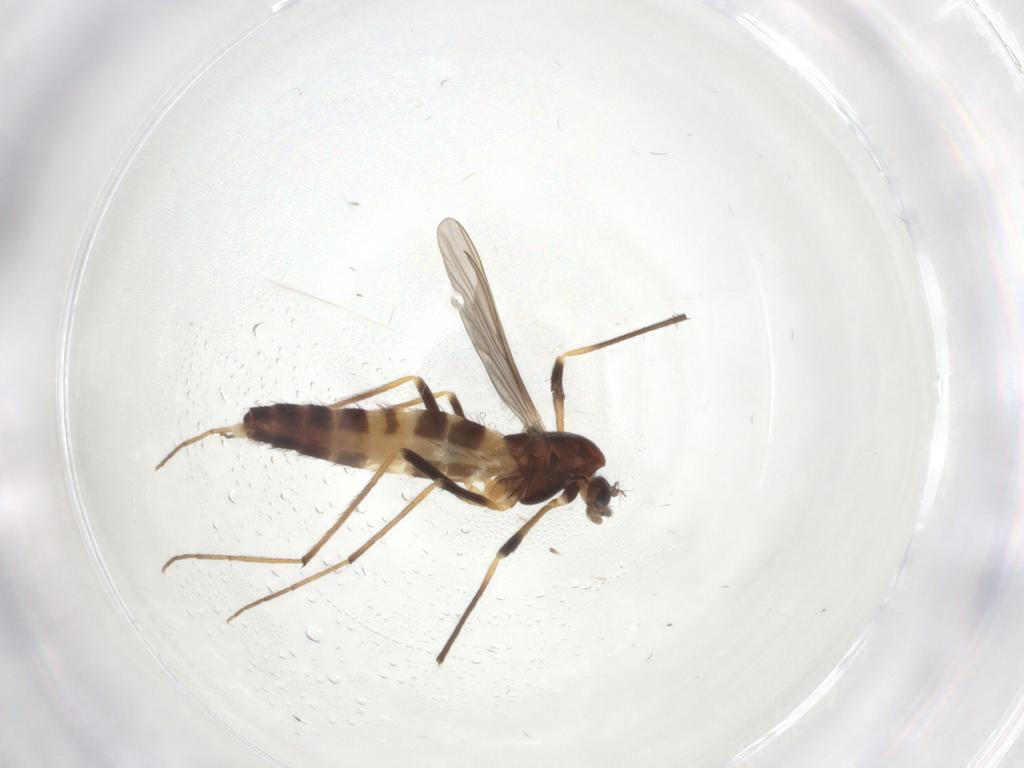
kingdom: Animalia
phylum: Arthropoda
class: Insecta
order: Diptera
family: Chironomidae
